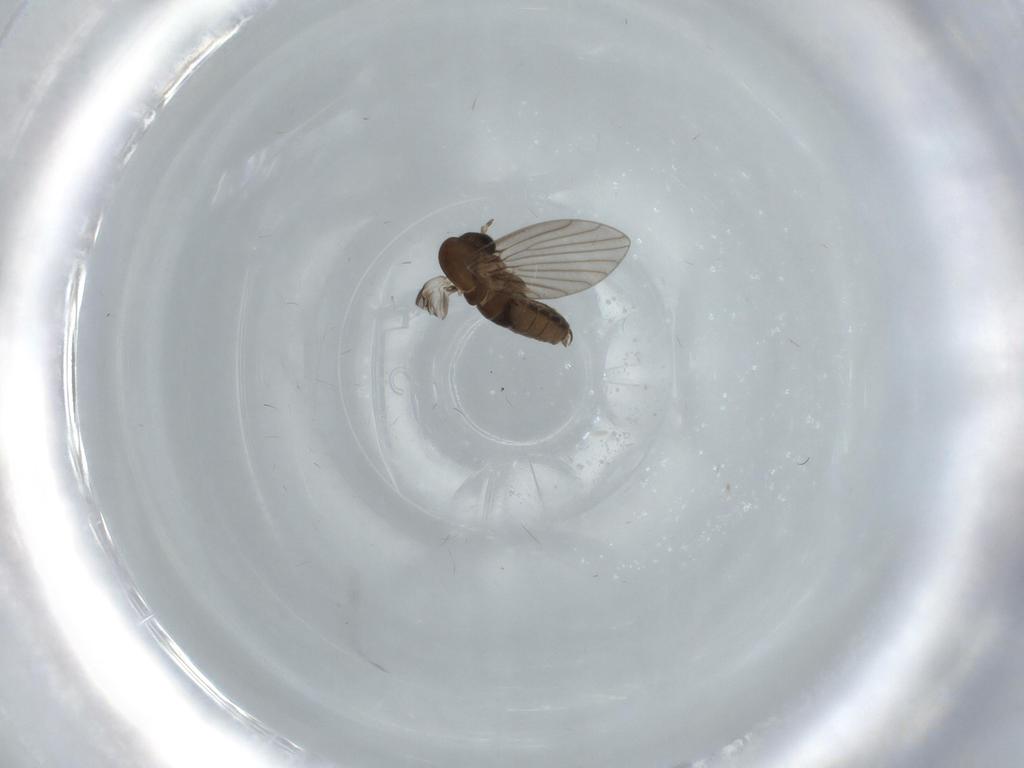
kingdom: Animalia
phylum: Arthropoda
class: Insecta
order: Diptera
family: Psychodidae
